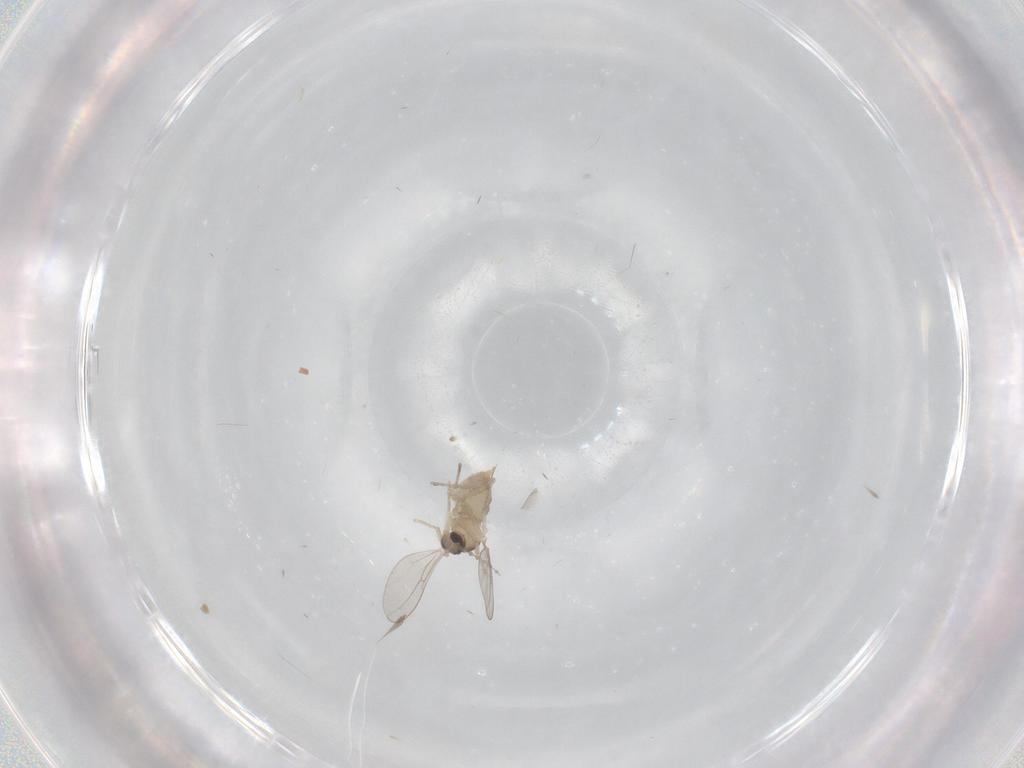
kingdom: Animalia
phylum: Arthropoda
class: Insecta
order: Diptera
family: Cecidomyiidae
